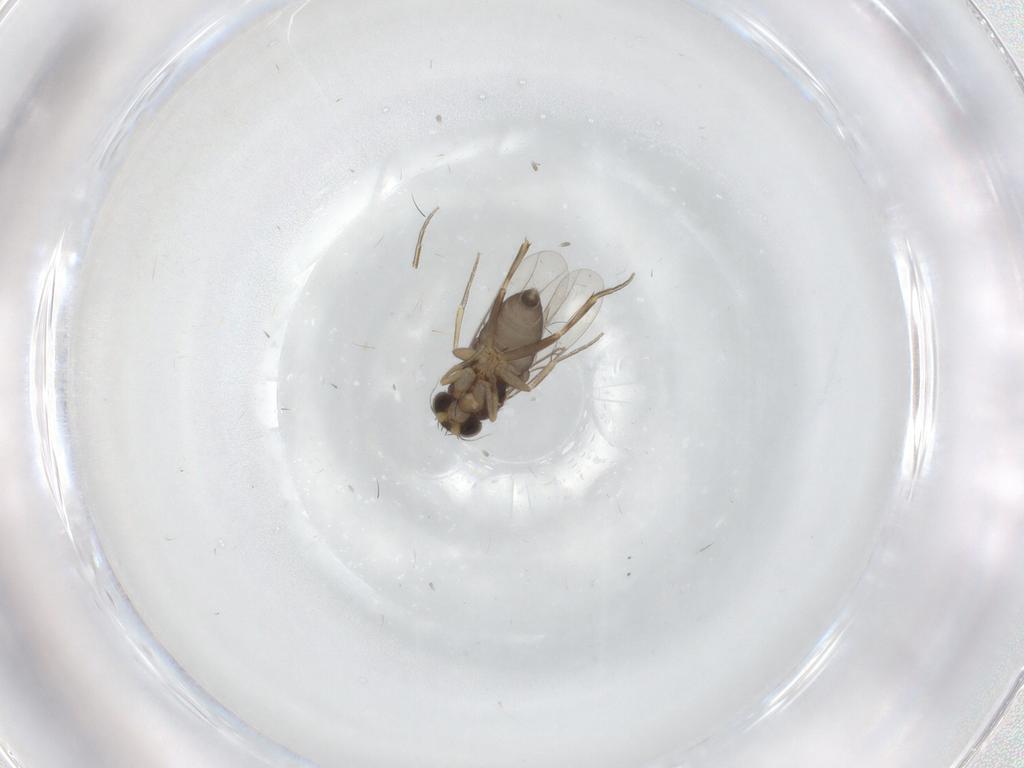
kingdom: Animalia
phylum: Arthropoda
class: Insecta
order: Diptera
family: Phoridae
